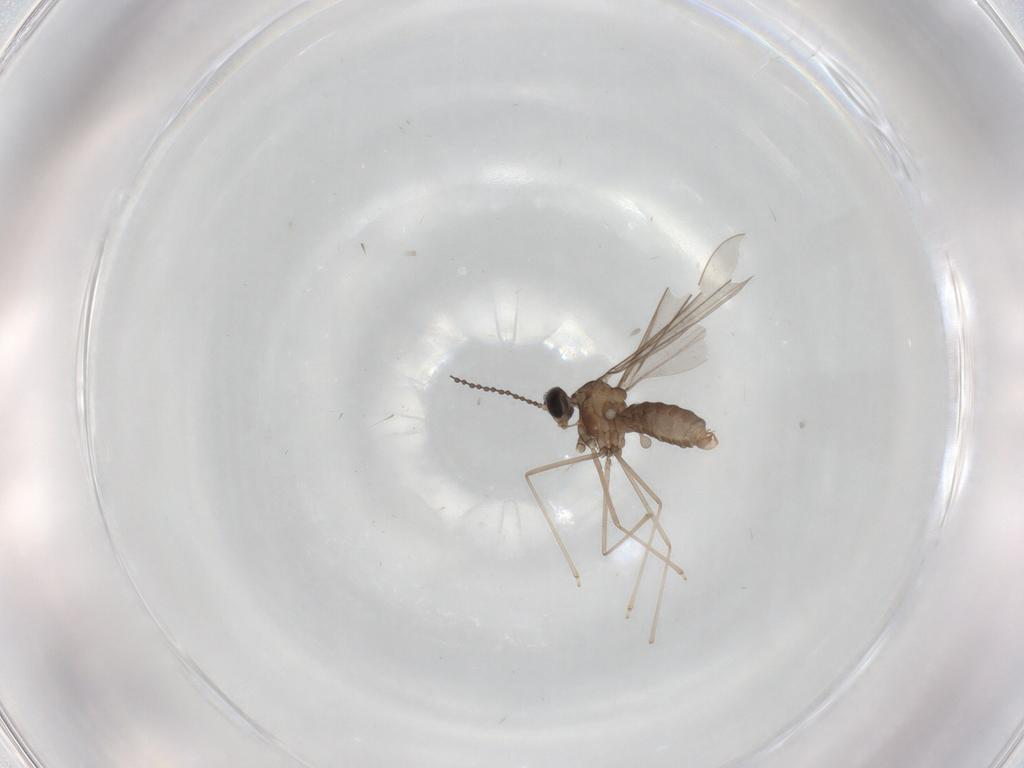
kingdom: Animalia
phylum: Arthropoda
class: Insecta
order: Diptera
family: Cecidomyiidae
